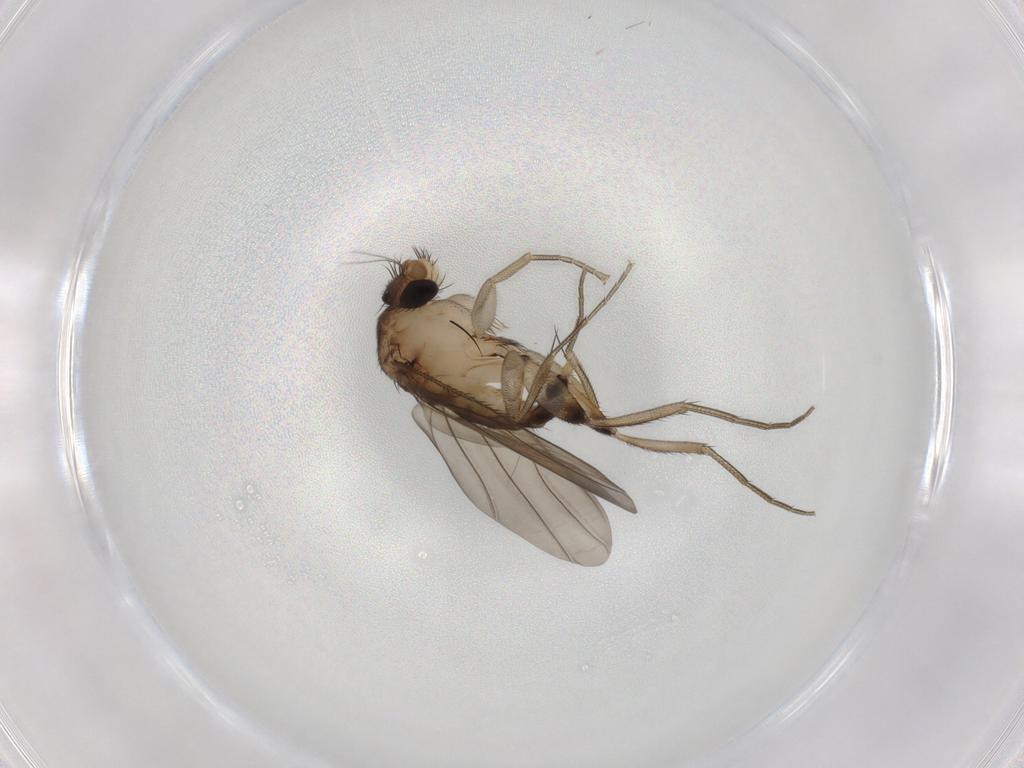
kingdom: Animalia
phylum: Arthropoda
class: Insecta
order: Diptera
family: Phoridae
